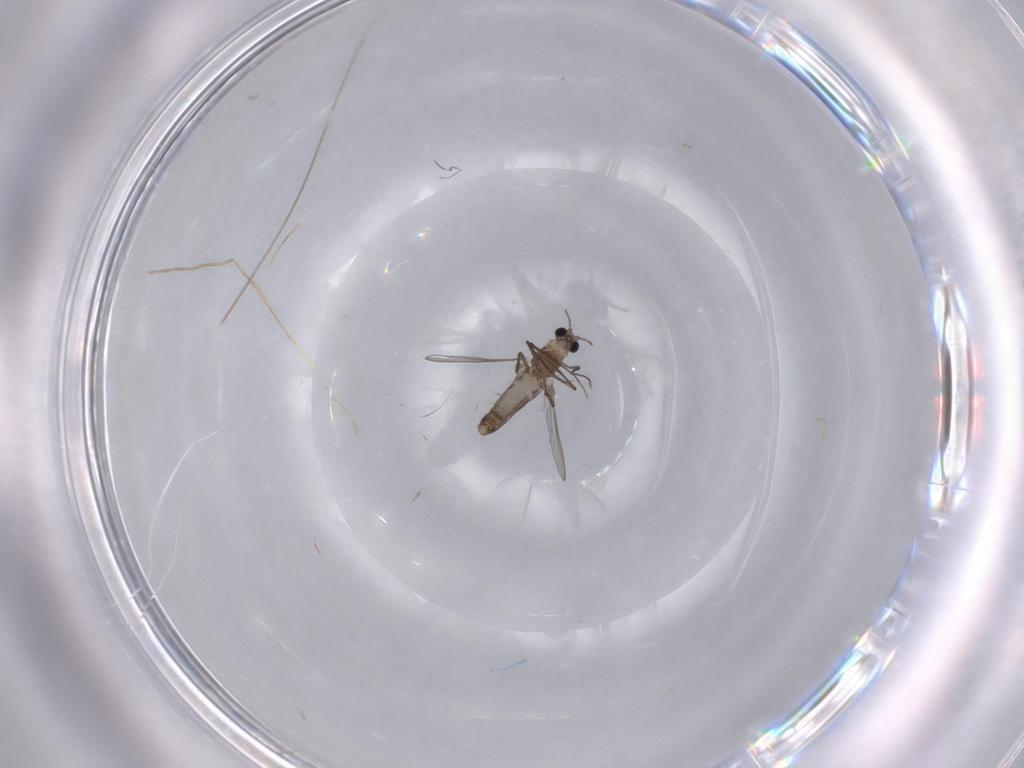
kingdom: Animalia
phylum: Arthropoda
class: Insecta
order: Diptera
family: Chironomidae
